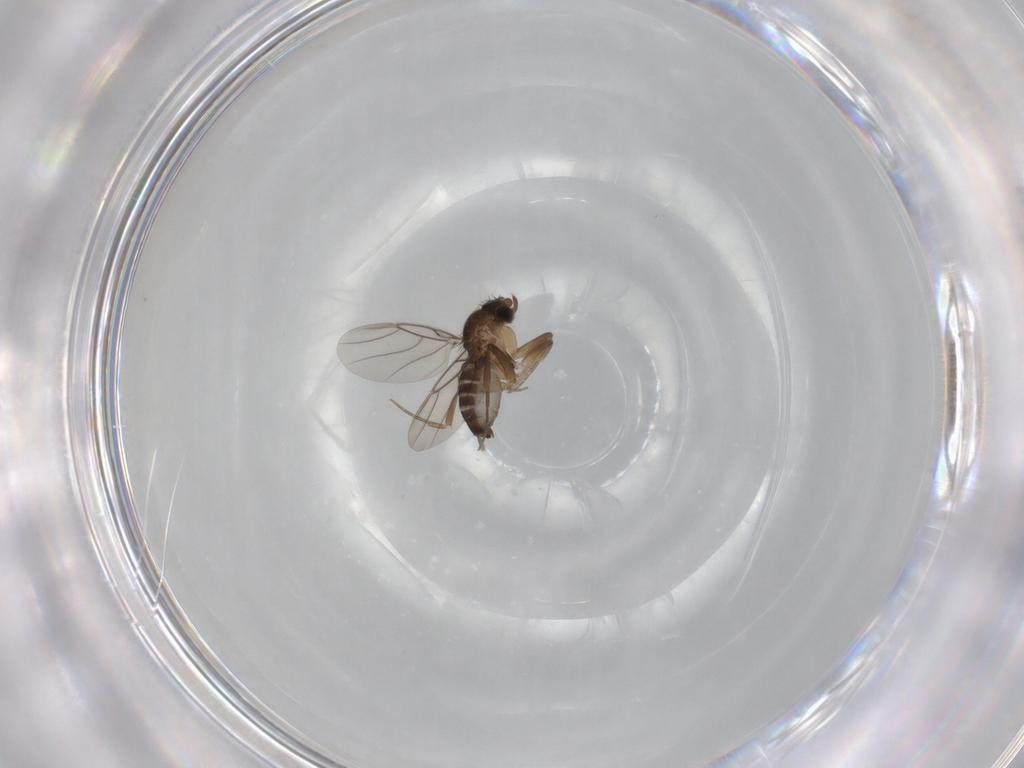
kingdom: Animalia
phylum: Arthropoda
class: Insecta
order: Diptera
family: Phoridae
